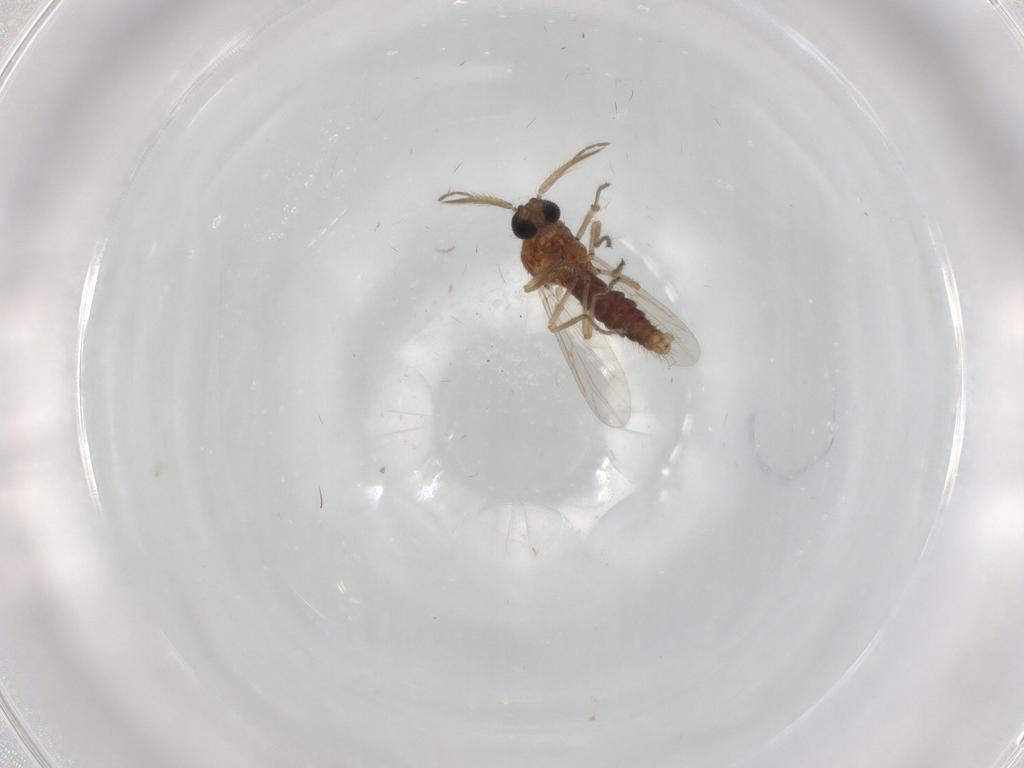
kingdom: Animalia
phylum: Arthropoda
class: Insecta
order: Diptera
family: Ceratopogonidae
